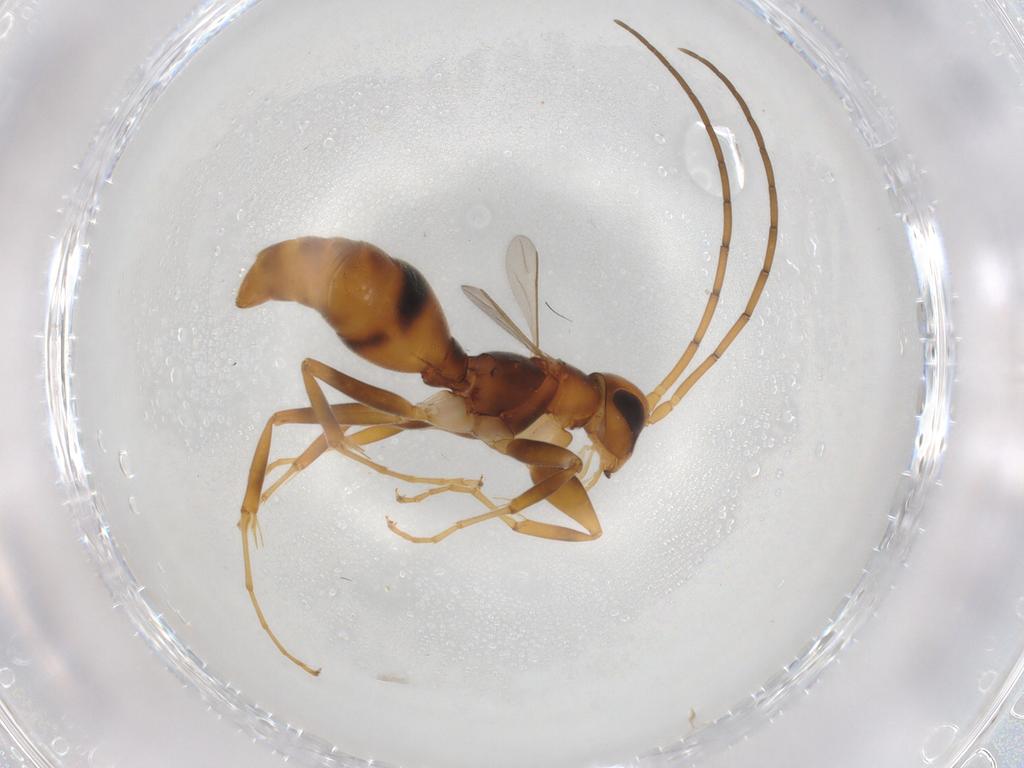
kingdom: Animalia
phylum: Arthropoda
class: Insecta
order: Hymenoptera
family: Rhopalosomatidae
